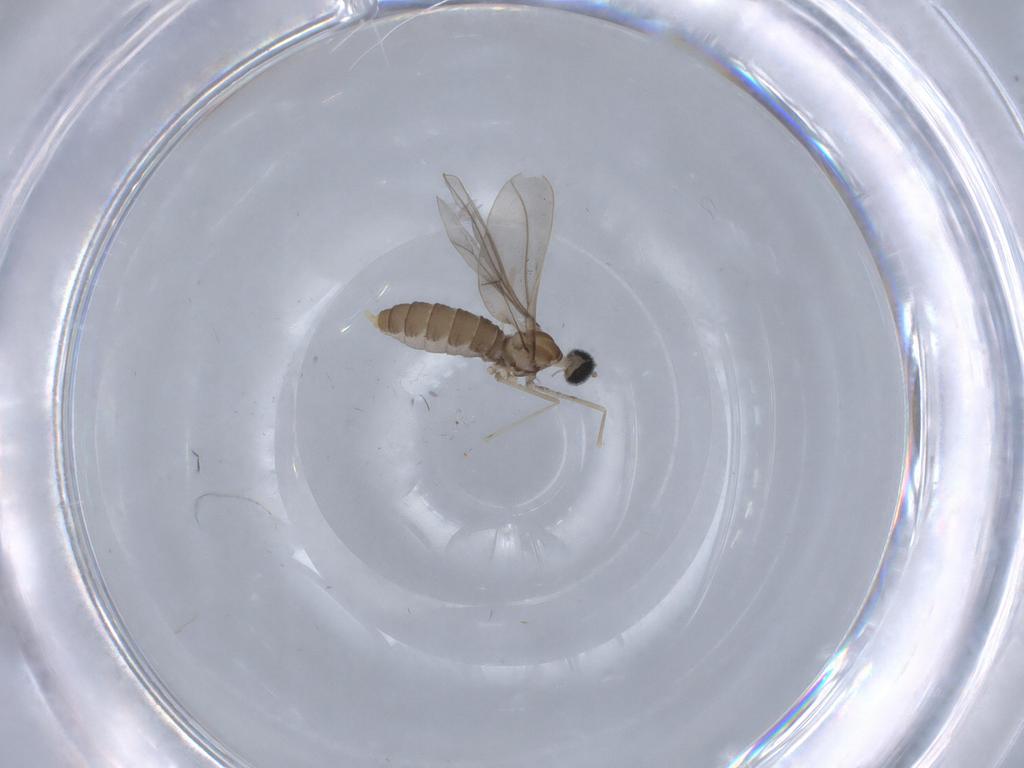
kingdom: Animalia
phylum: Arthropoda
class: Insecta
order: Diptera
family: Cecidomyiidae
